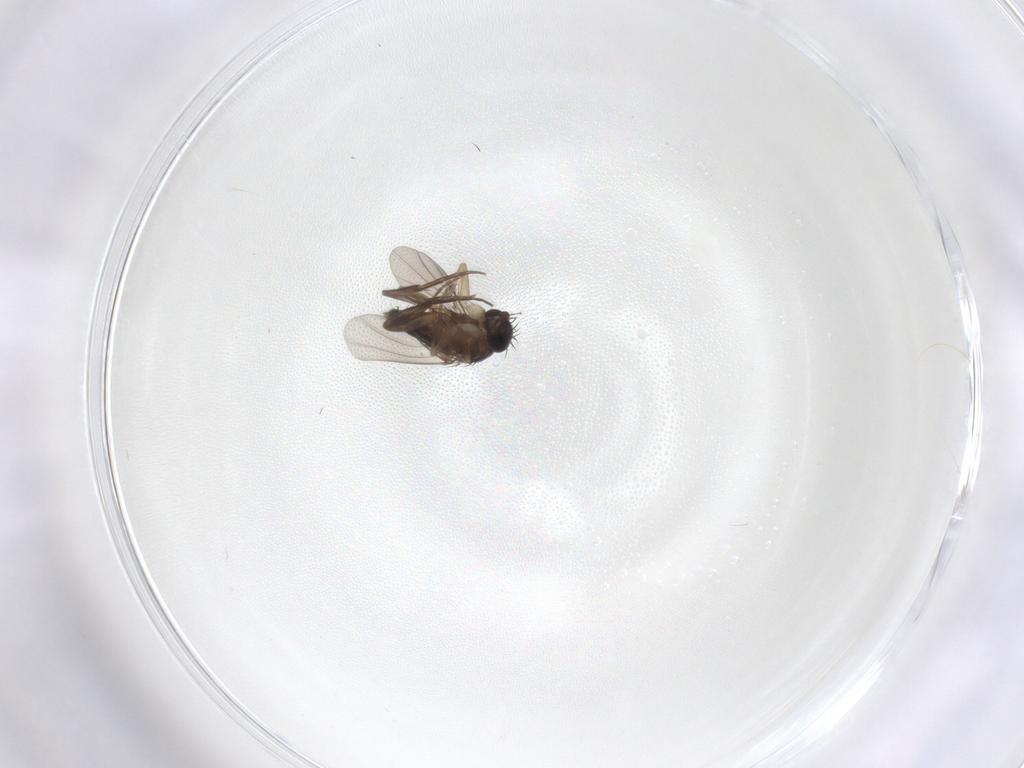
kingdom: Animalia
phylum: Arthropoda
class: Insecta
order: Diptera
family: Phoridae
